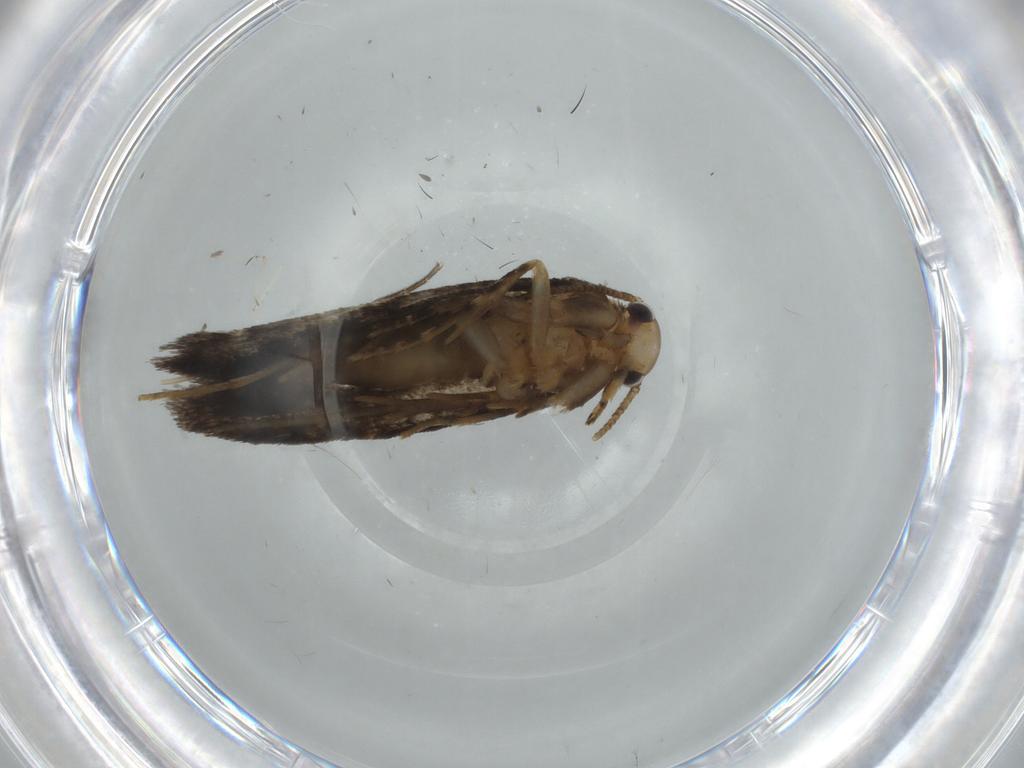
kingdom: Animalia
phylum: Arthropoda
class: Insecta
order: Lepidoptera
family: Tineidae
